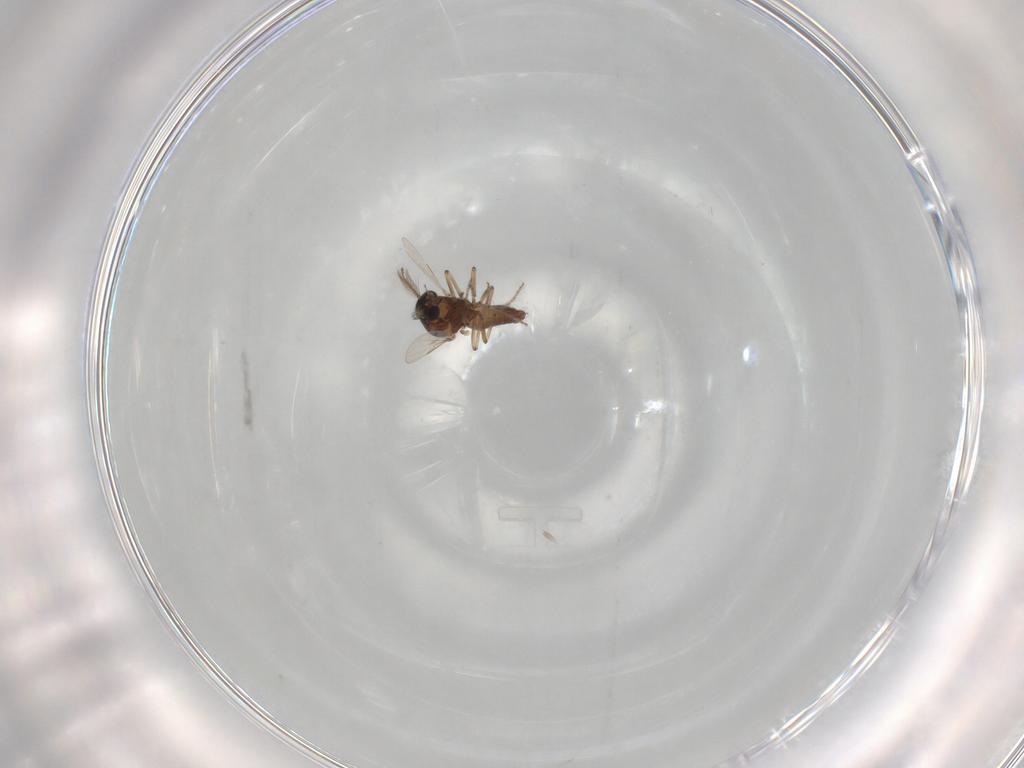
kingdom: Animalia
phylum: Arthropoda
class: Insecta
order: Diptera
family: Ceratopogonidae
